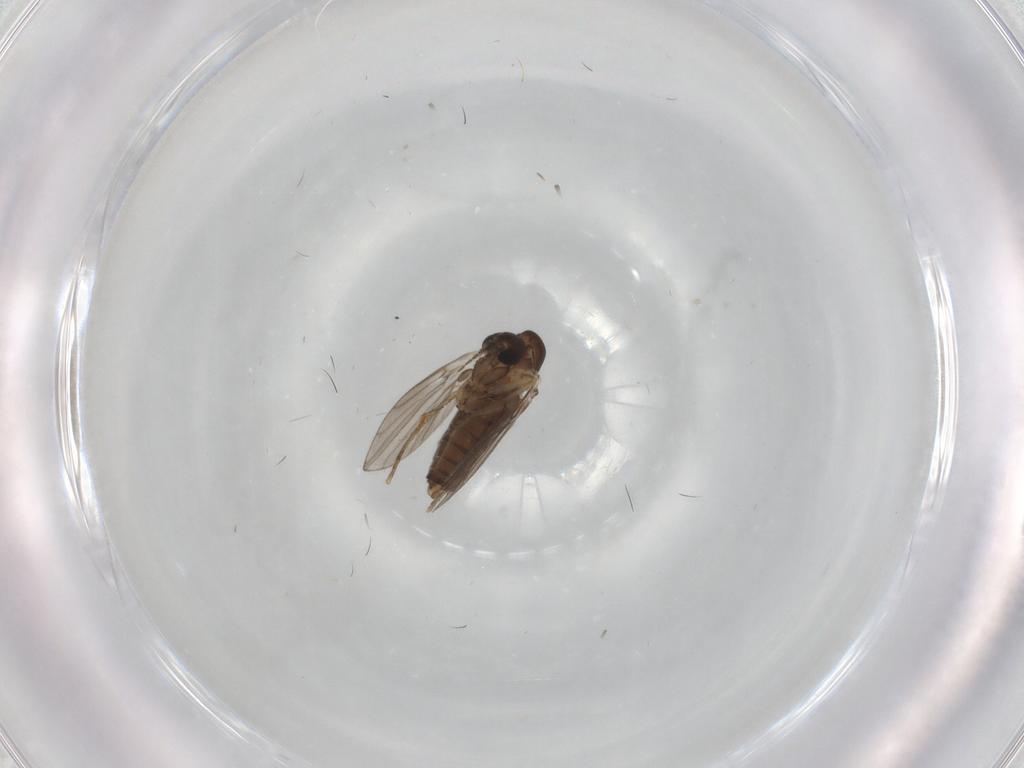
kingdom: Animalia
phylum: Arthropoda
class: Insecta
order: Diptera
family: Sciaridae
